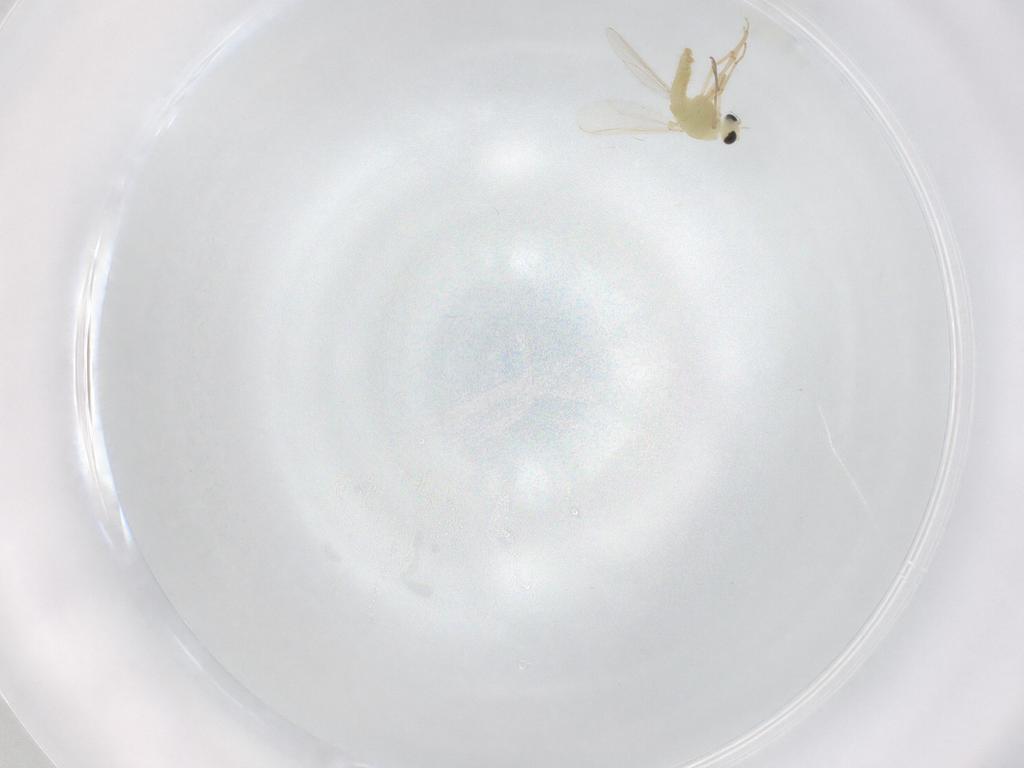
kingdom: Animalia
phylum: Arthropoda
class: Insecta
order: Diptera
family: Chironomidae
